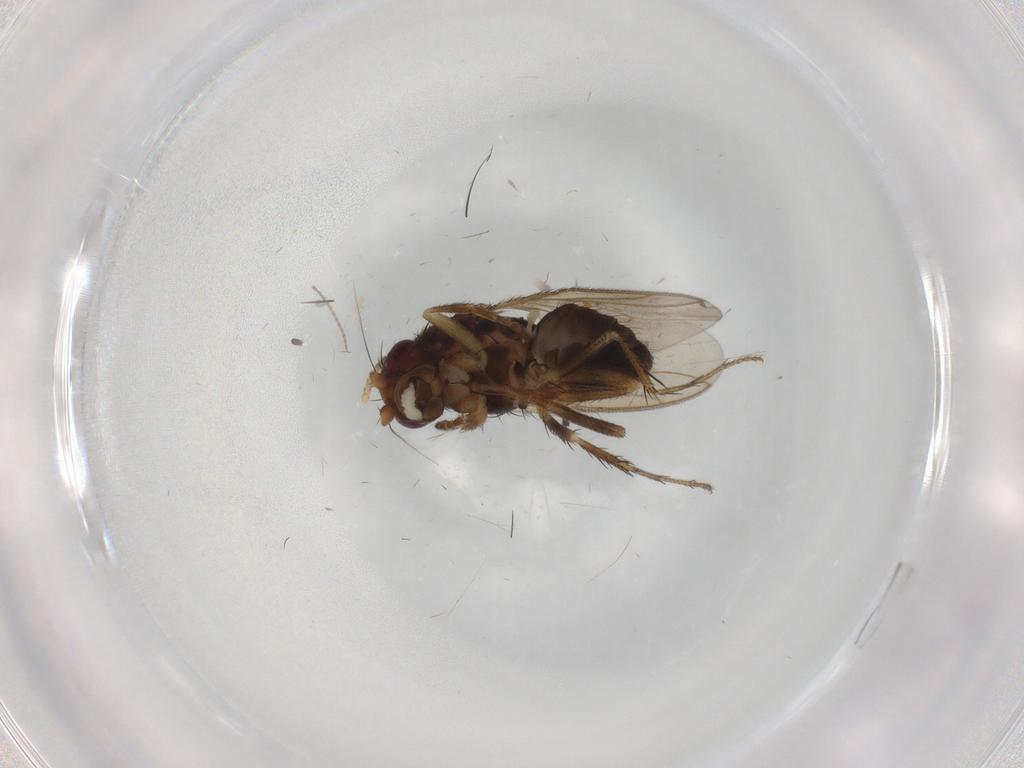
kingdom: Animalia
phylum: Arthropoda
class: Insecta
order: Diptera
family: Sphaeroceridae
